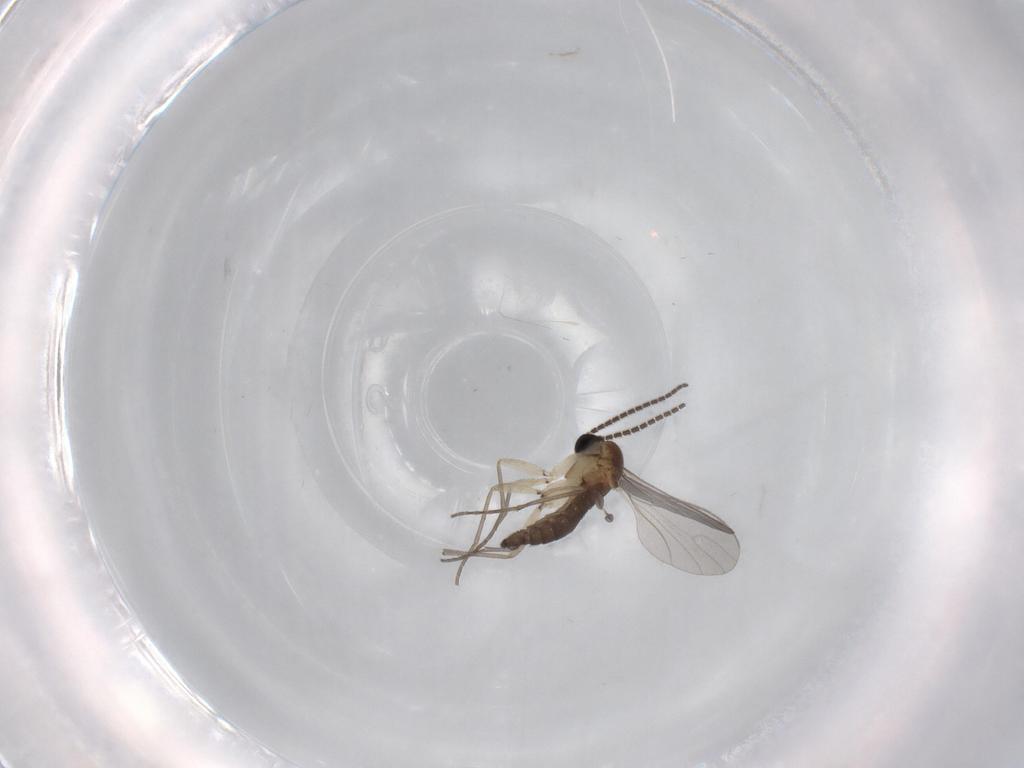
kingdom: Animalia
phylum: Arthropoda
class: Insecta
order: Diptera
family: Sciaridae
